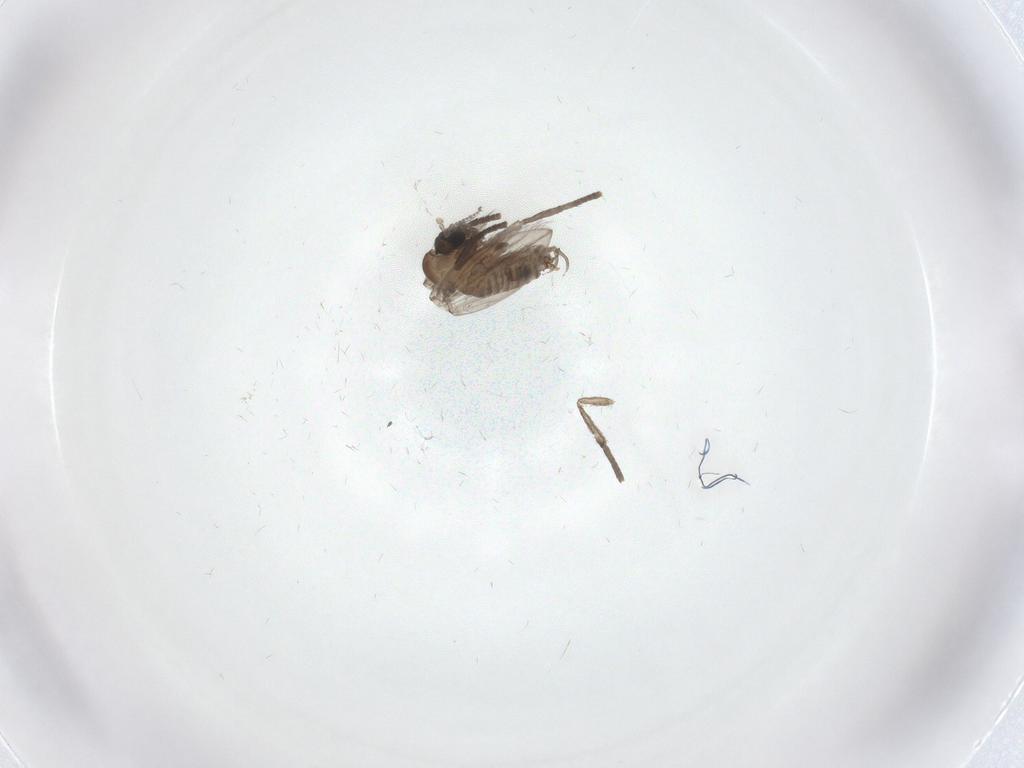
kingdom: Animalia
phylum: Arthropoda
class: Insecta
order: Diptera
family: Psychodidae
